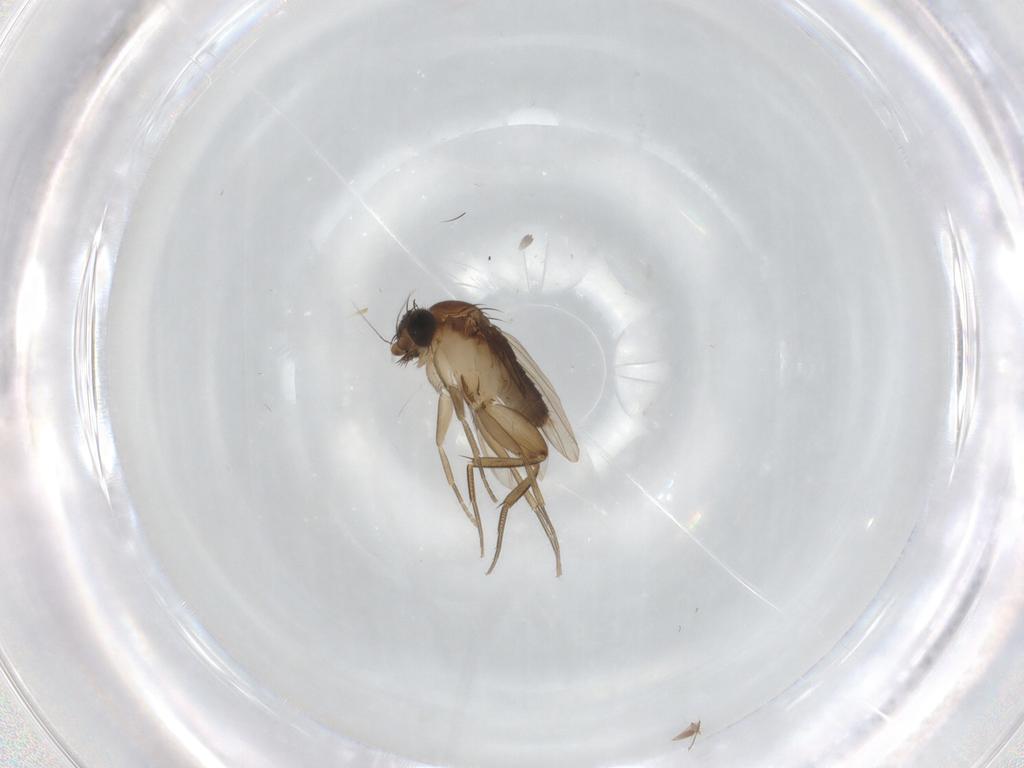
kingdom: Animalia
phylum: Arthropoda
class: Insecta
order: Diptera
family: Phoridae
